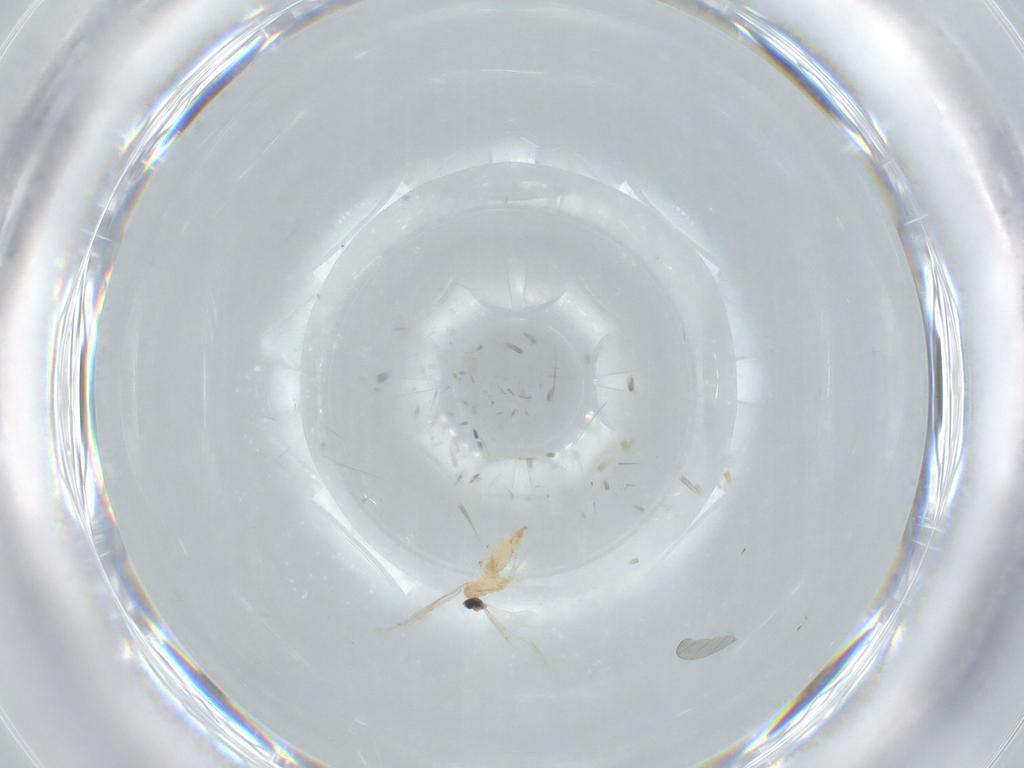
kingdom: Animalia
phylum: Arthropoda
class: Insecta
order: Diptera
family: Cecidomyiidae
